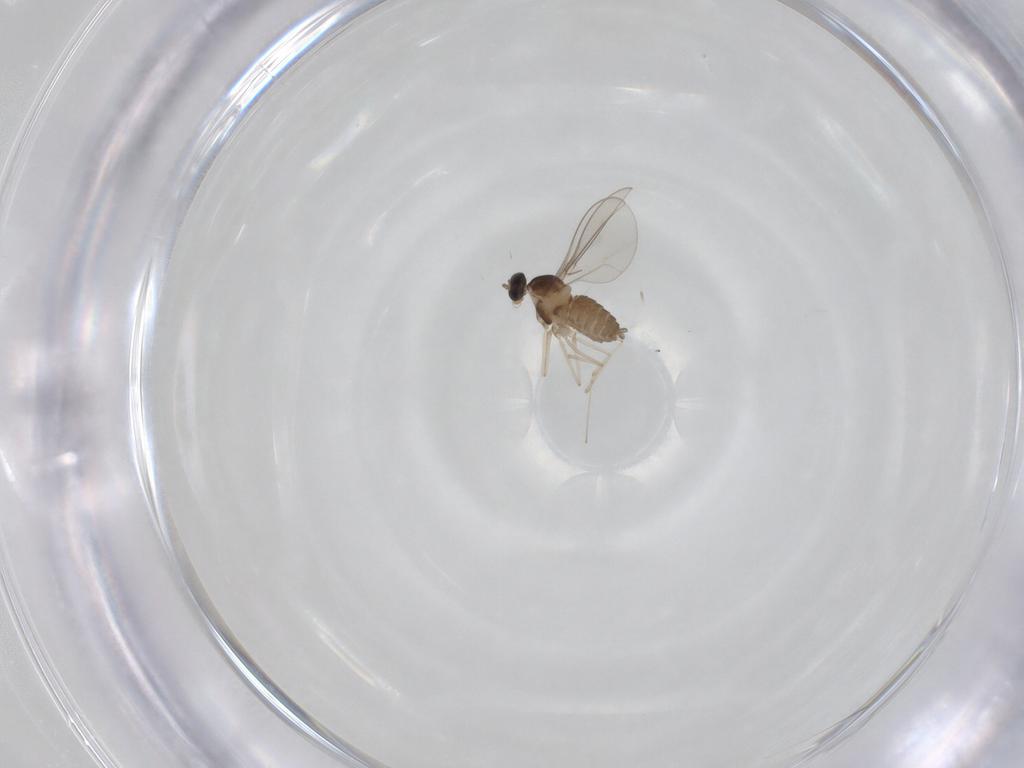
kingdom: Animalia
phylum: Arthropoda
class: Insecta
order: Diptera
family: Cecidomyiidae
